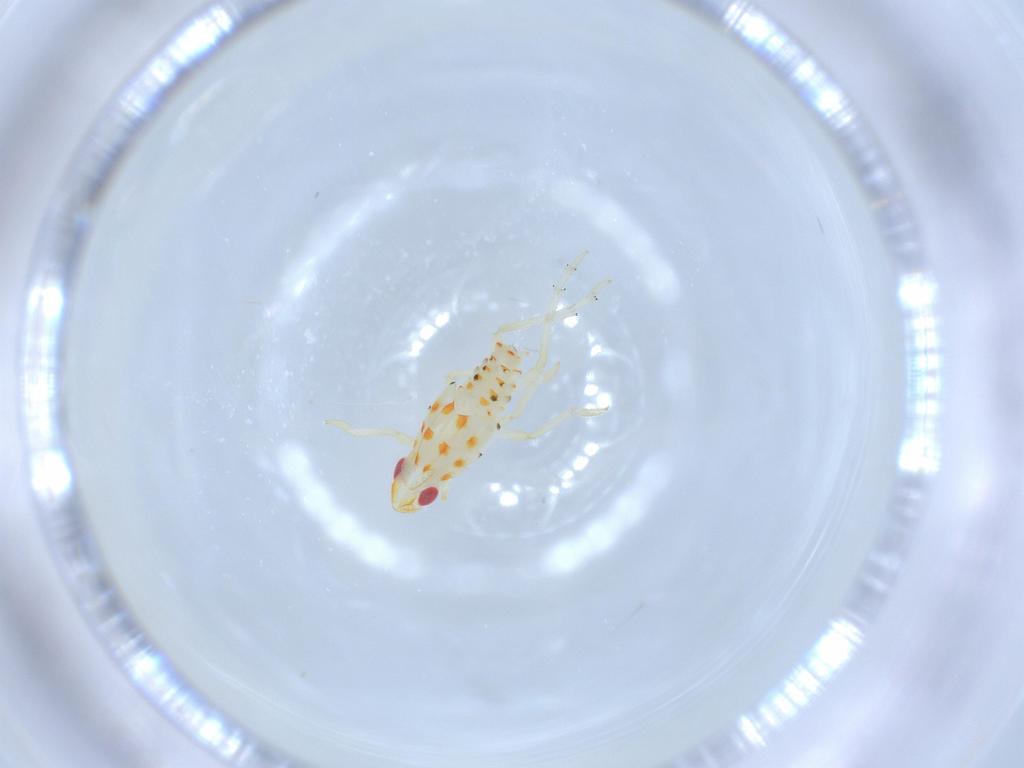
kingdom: Animalia
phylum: Arthropoda
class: Insecta
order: Hemiptera
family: Tropiduchidae
